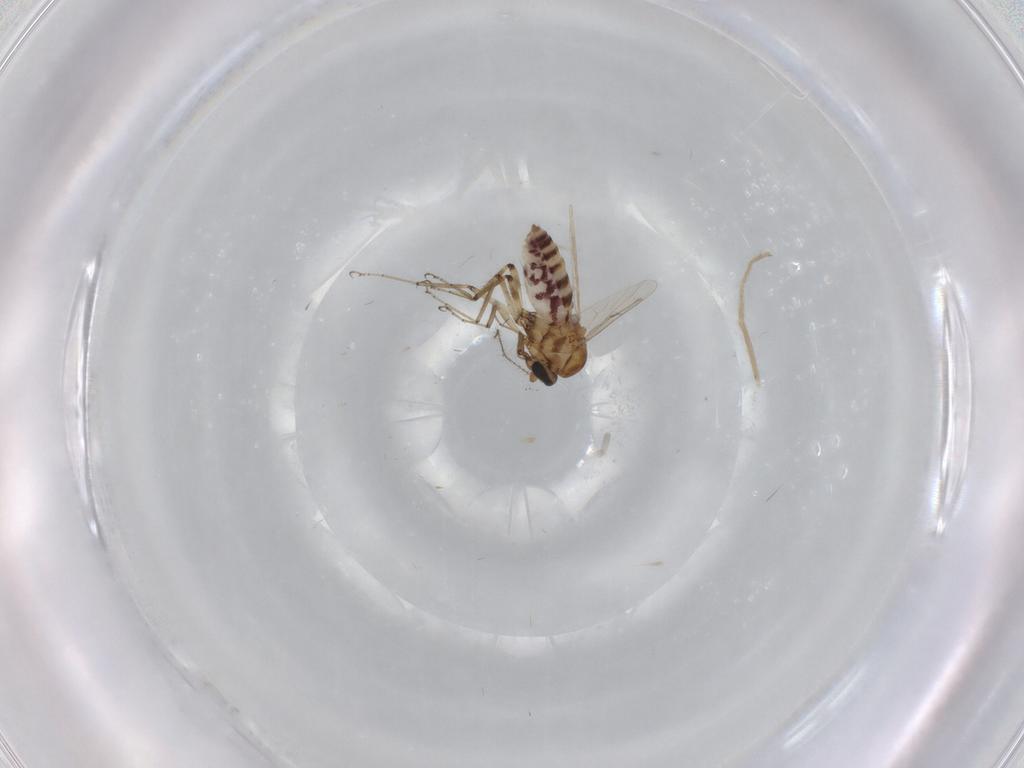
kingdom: Animalia
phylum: Arthropoda
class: Insecta
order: Diptera
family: Ceratopogonidae
